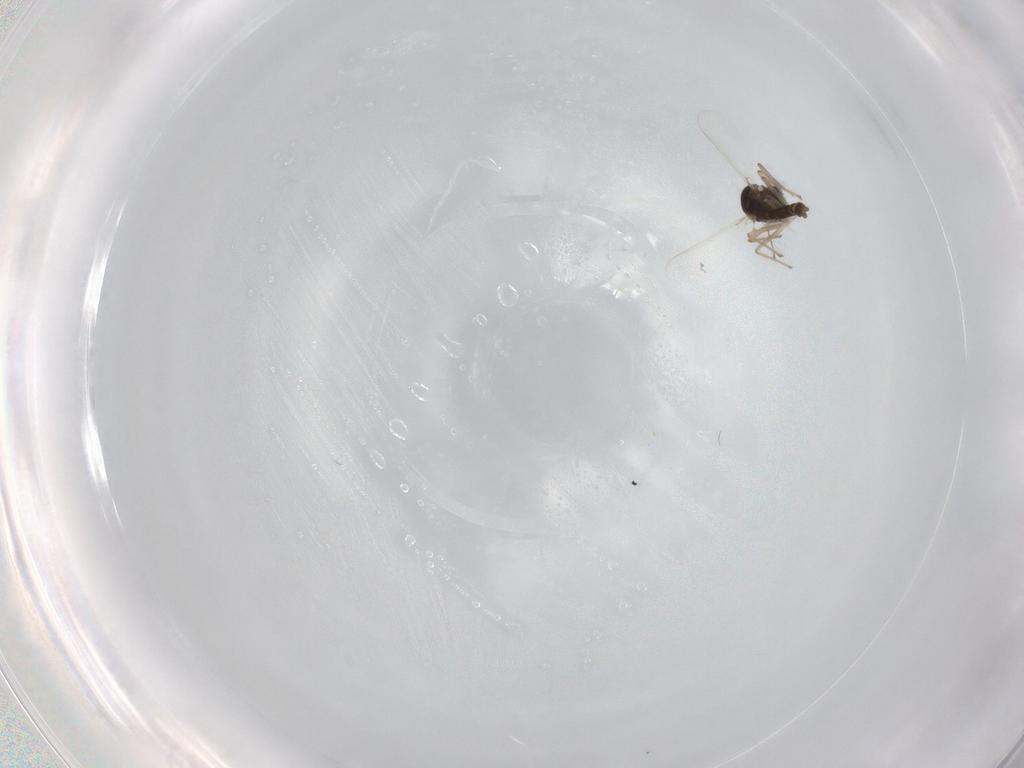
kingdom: Animalia
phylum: Arthropoda
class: Insecta
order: Diptera
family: Chironomidae
